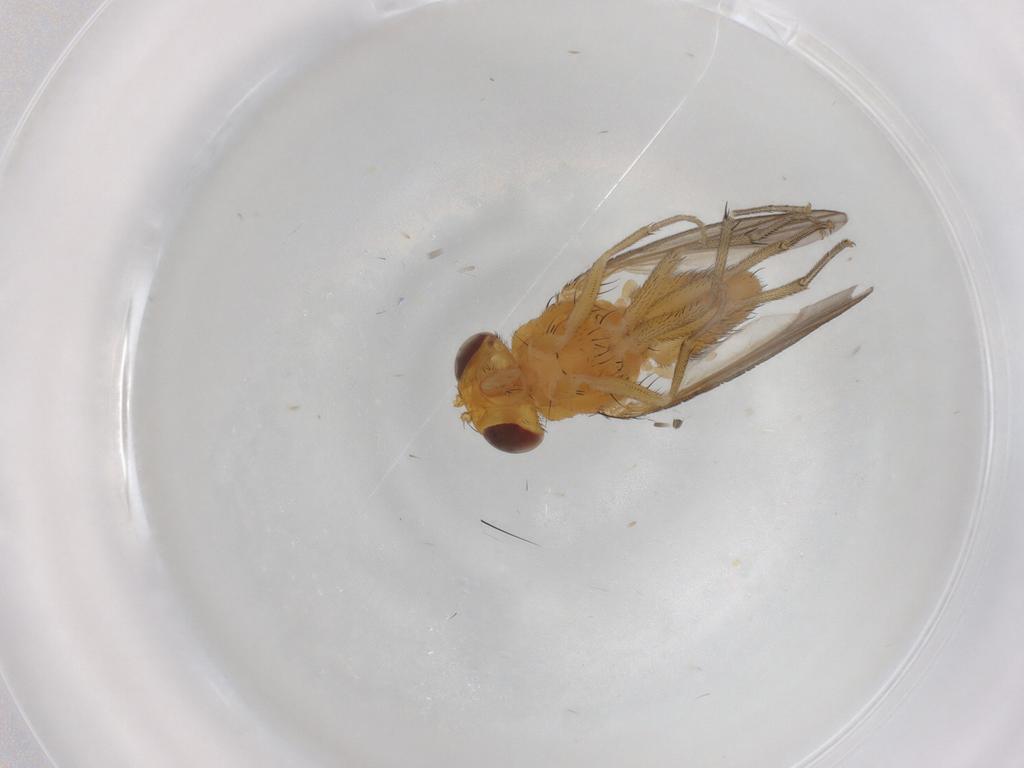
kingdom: Animalia
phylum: Arthropoda
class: Insecta
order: Diptera
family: Lauxaniidae
